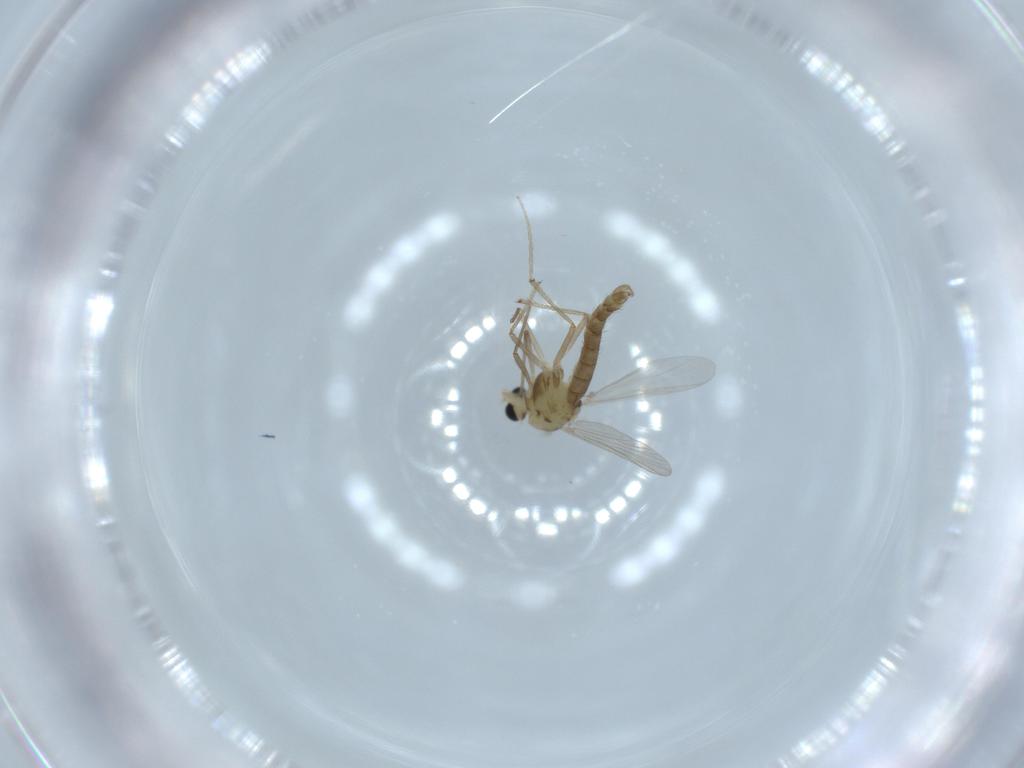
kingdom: Animalia
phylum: Arthropoda
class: Insecta
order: Diptera
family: Chironomidae
